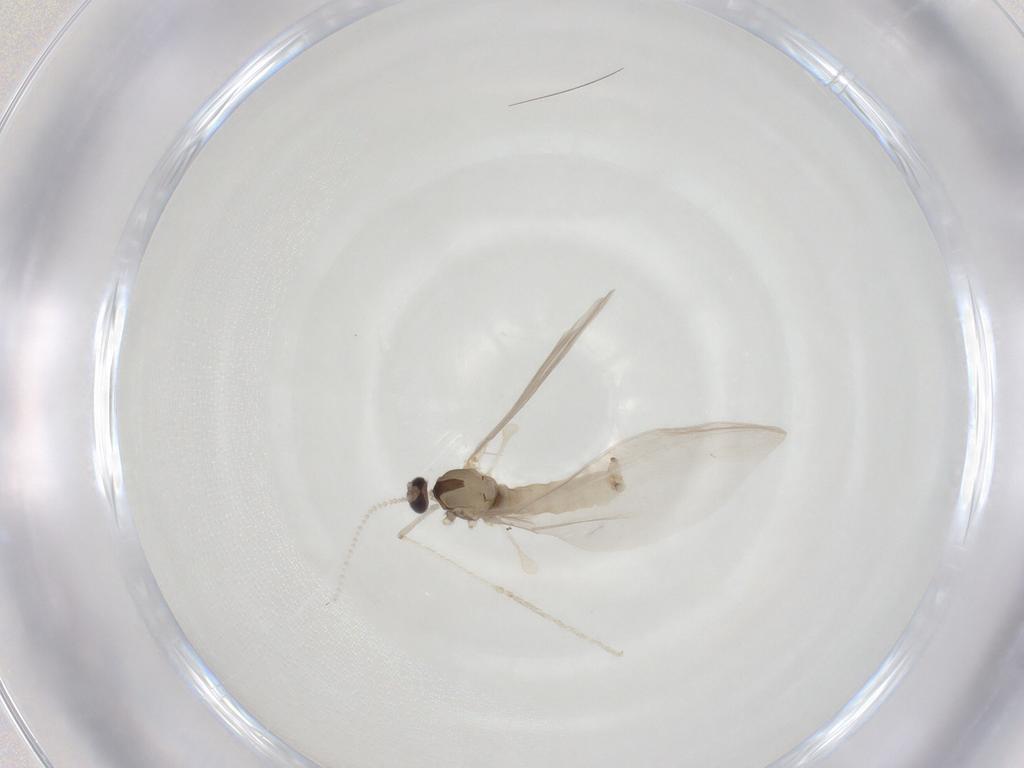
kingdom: Animalia
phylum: Arthropoda
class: Insecta
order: Diptera
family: Cecidomyiidae
